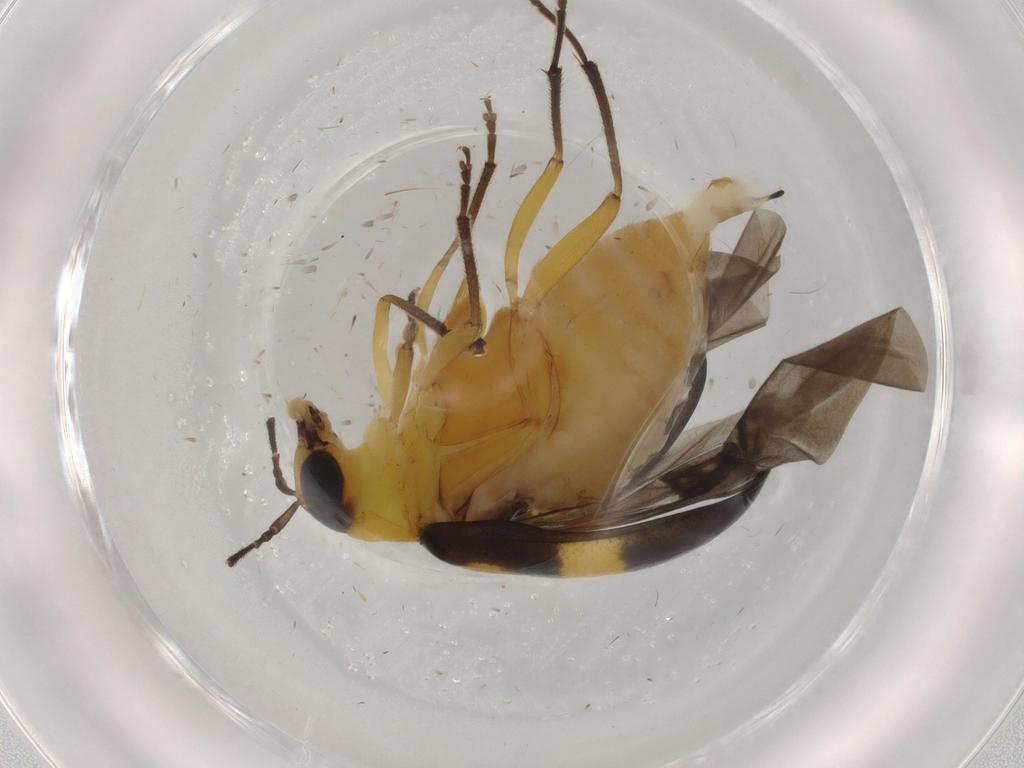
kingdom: Animalia
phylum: Arthropoda
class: Insecta
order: Coleoptera
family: Chrysomelidae
